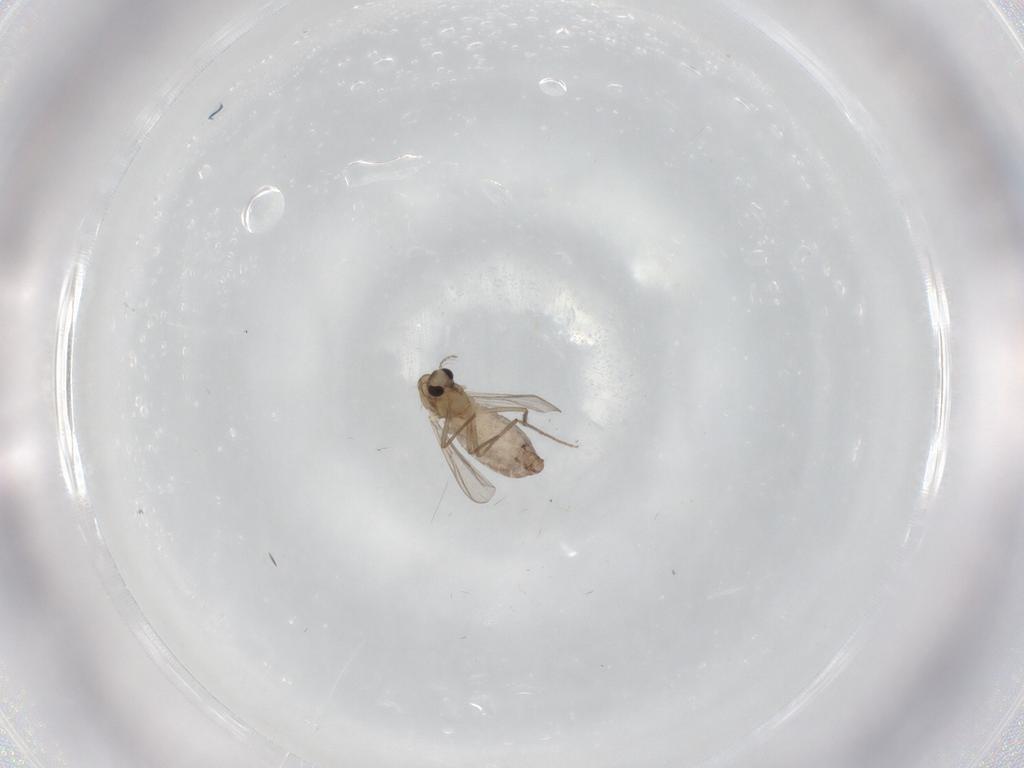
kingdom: Animalia
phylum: Arthropoda
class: Insecta
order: Diptera
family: Chironomidae
